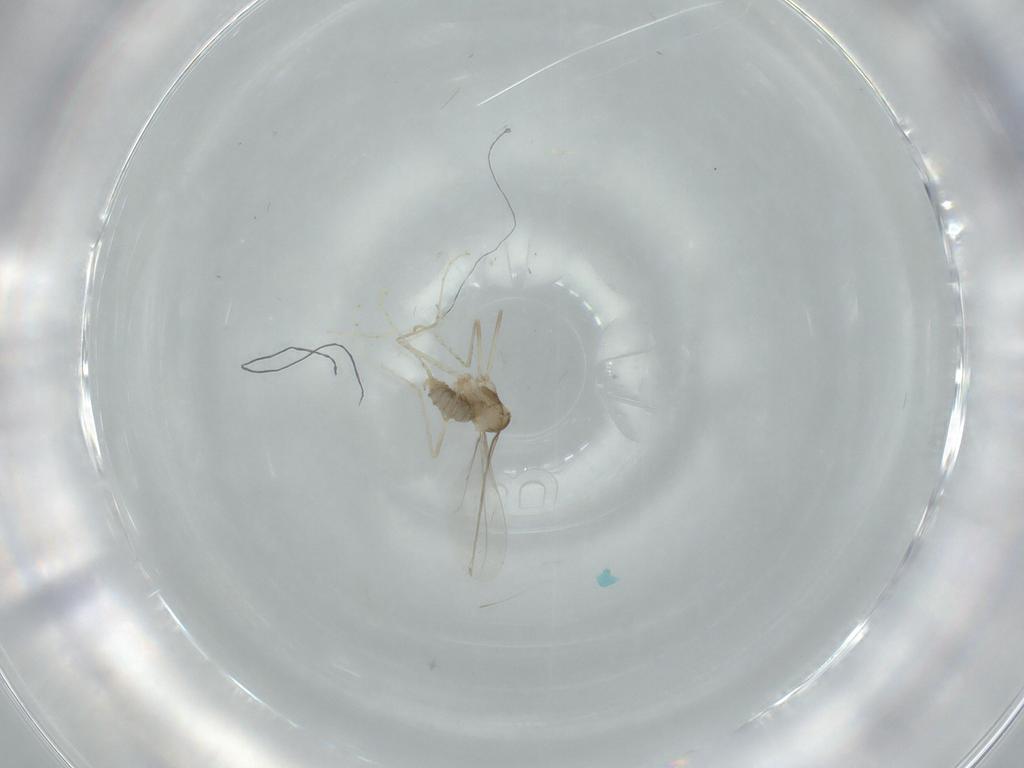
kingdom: Animalia
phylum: Arthropoda
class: Insecta
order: Diptera
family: Cecidomyiidae
